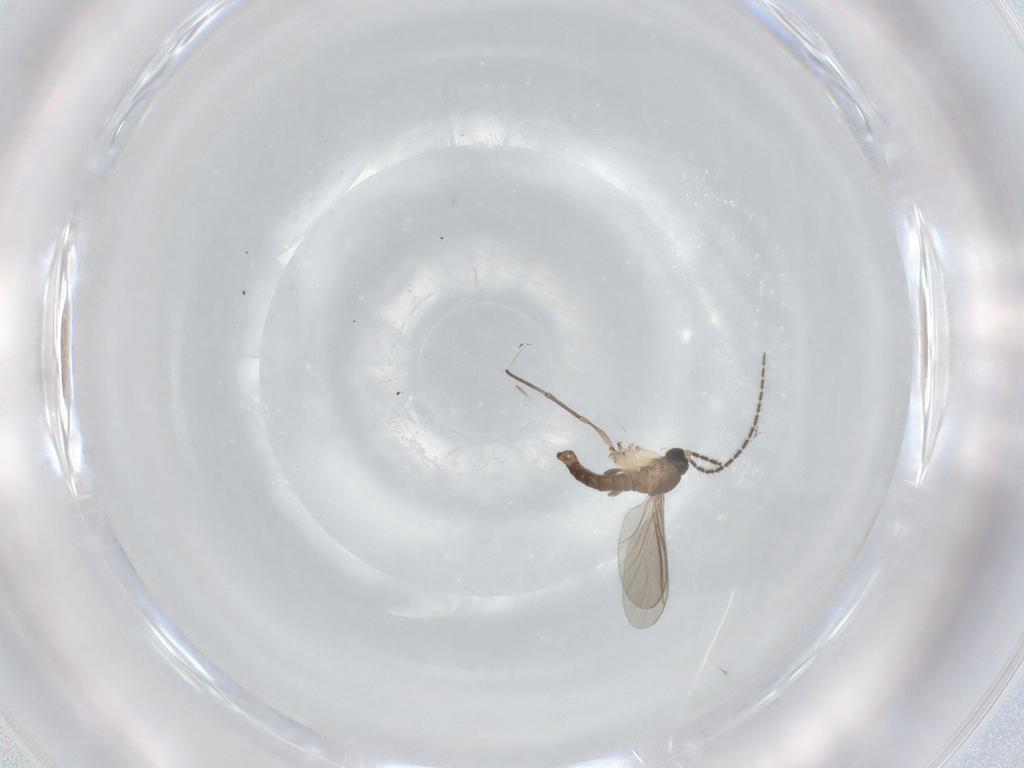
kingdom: Animalia
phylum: Arthropoda
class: Insecta
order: Diptera
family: Sciaridae
